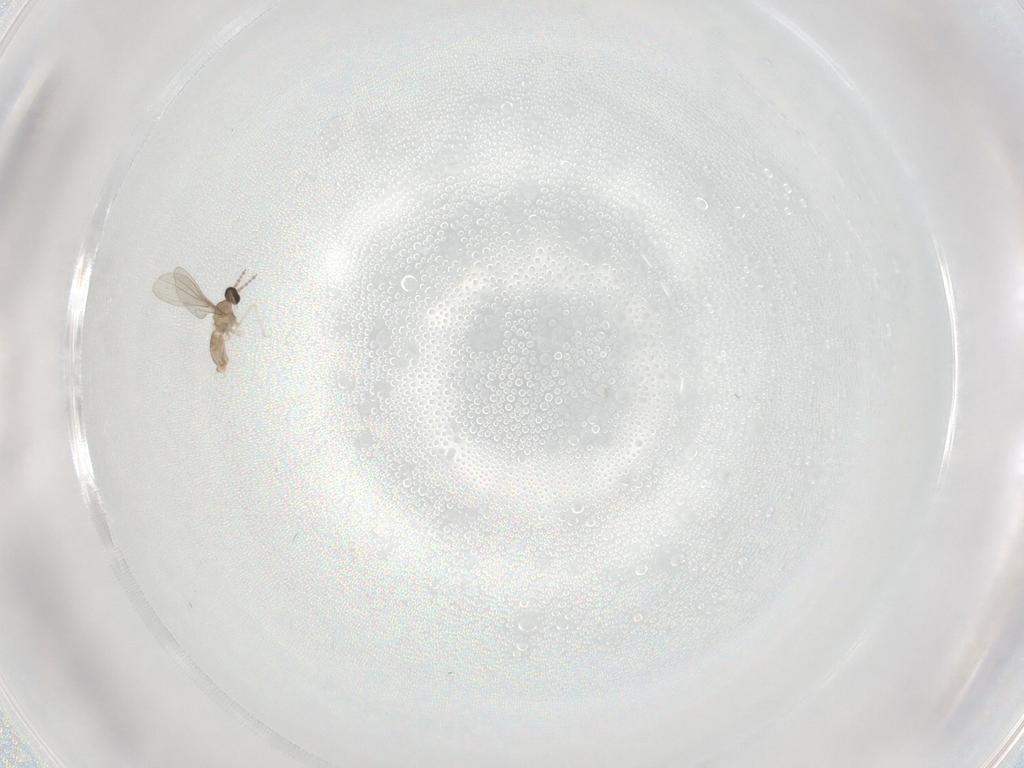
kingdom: Animalia
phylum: Arthropoda
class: Insecta
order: Diptera
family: Cecidomyiidae
